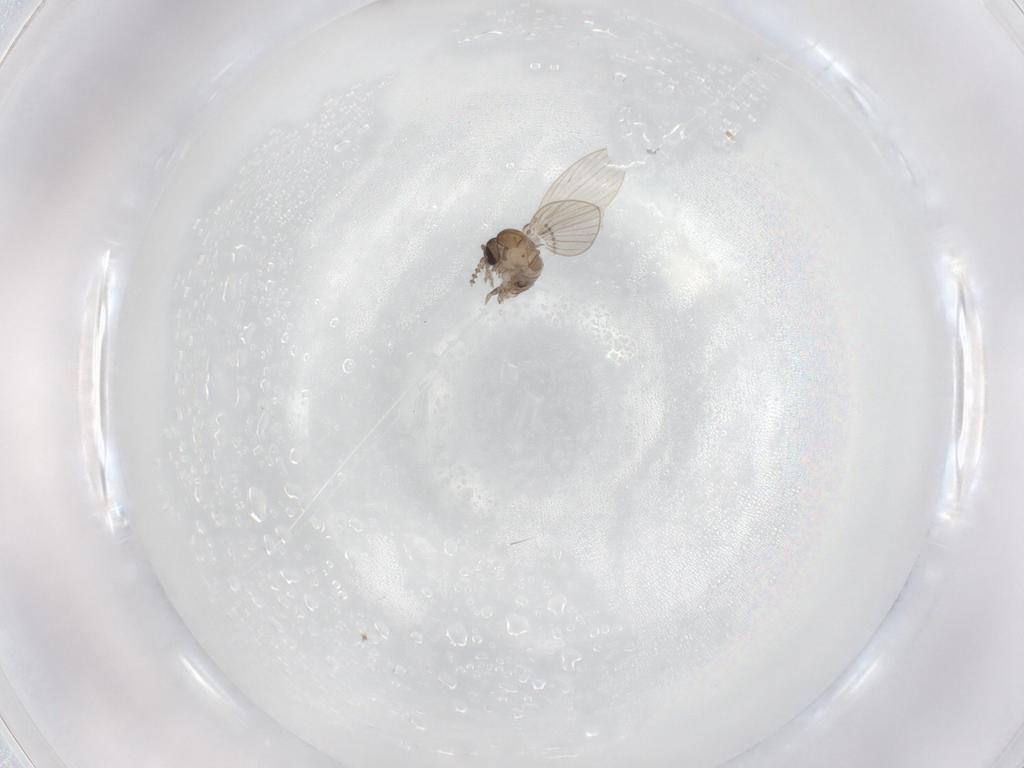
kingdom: Animalia
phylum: Arthropoda
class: Insecta
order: Diptera
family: Psychodidae
